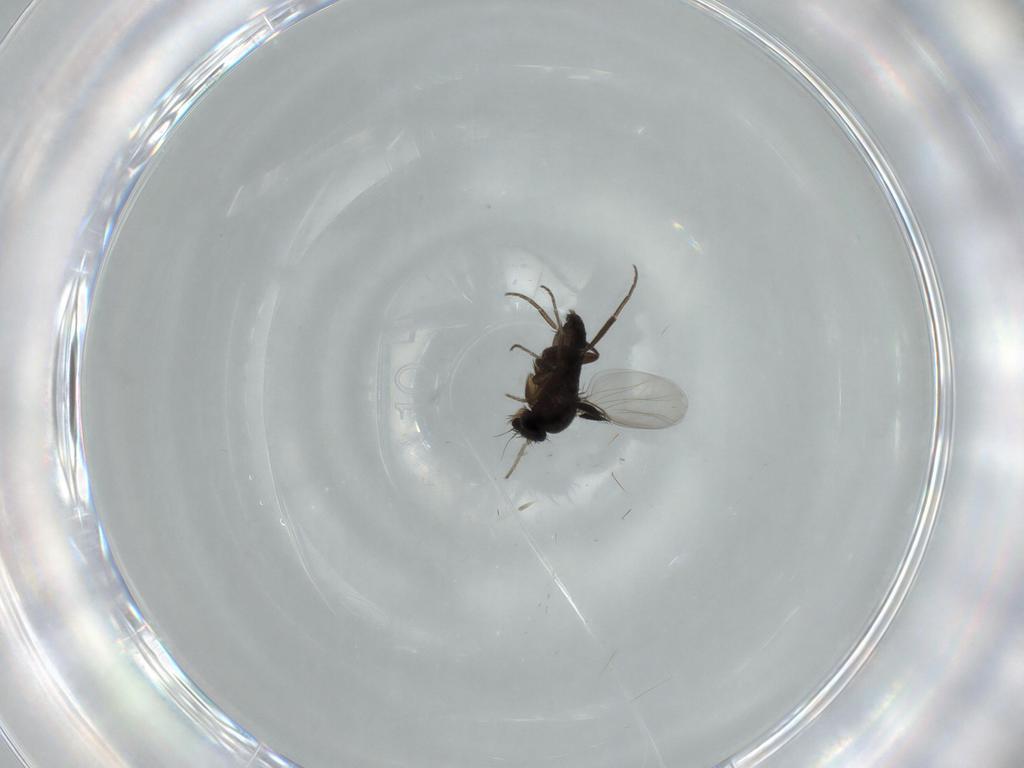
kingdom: Animalia
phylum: Arthropoda
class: Insecta
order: Diptera
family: Phoridae
